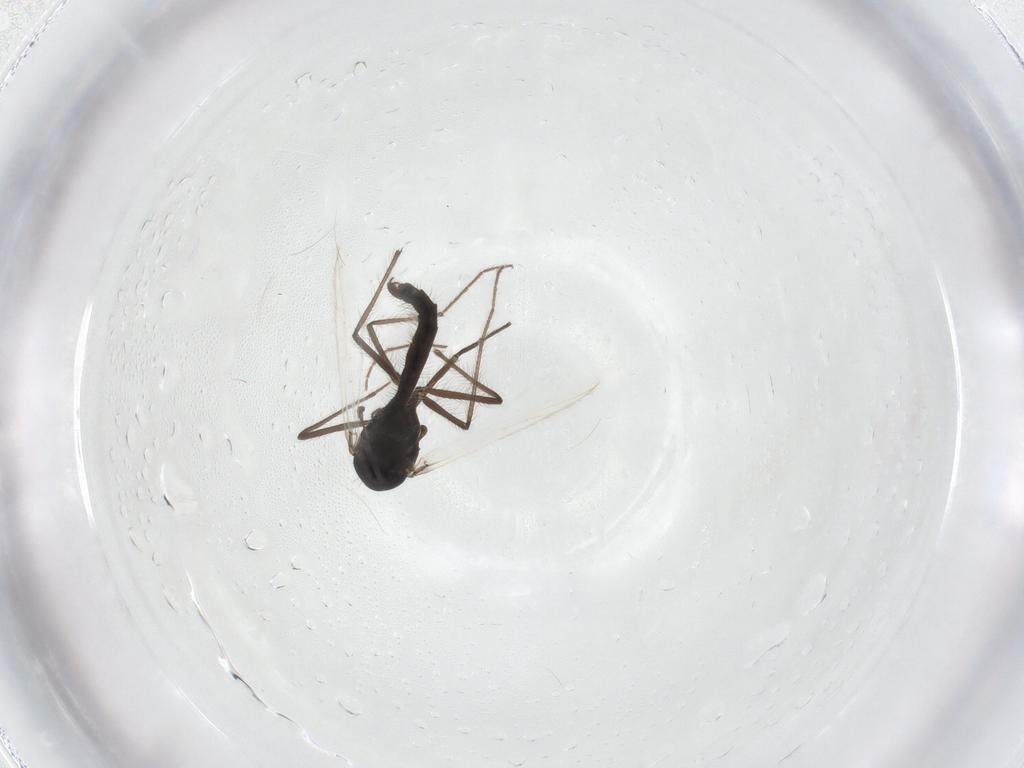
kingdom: Animalia
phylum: Arthropoda
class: Insecta
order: Diptera
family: Chironomidae
